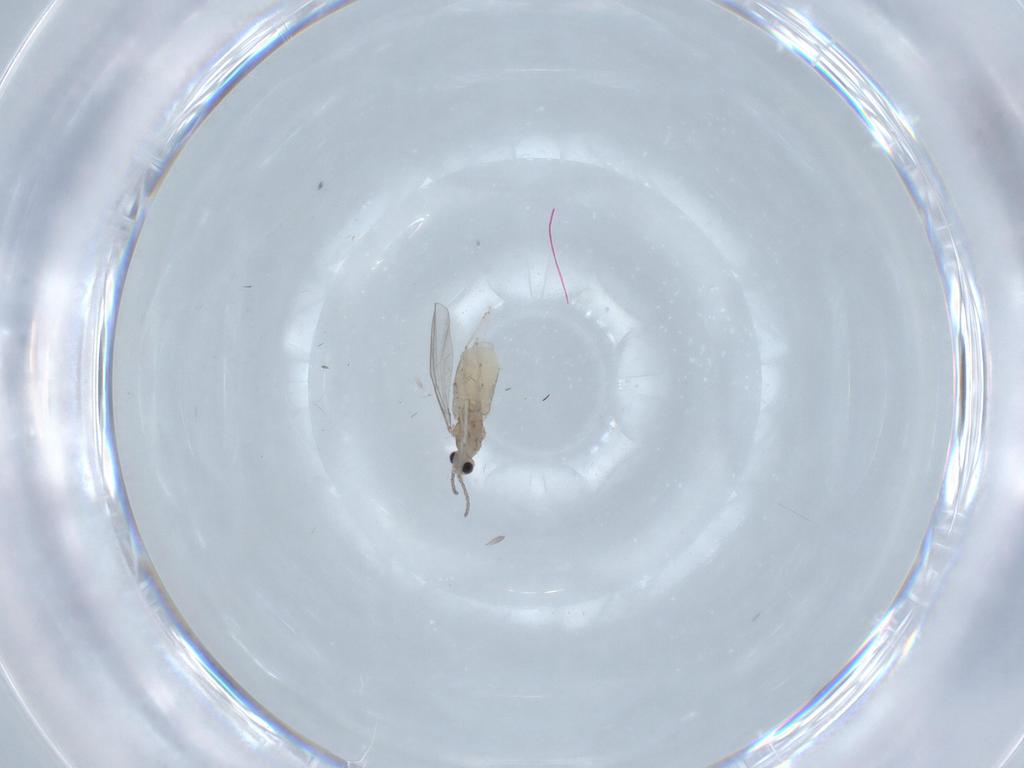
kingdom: Animalia
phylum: Arthropoda
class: Insecta
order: Diptera
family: Cecidomyiidae
